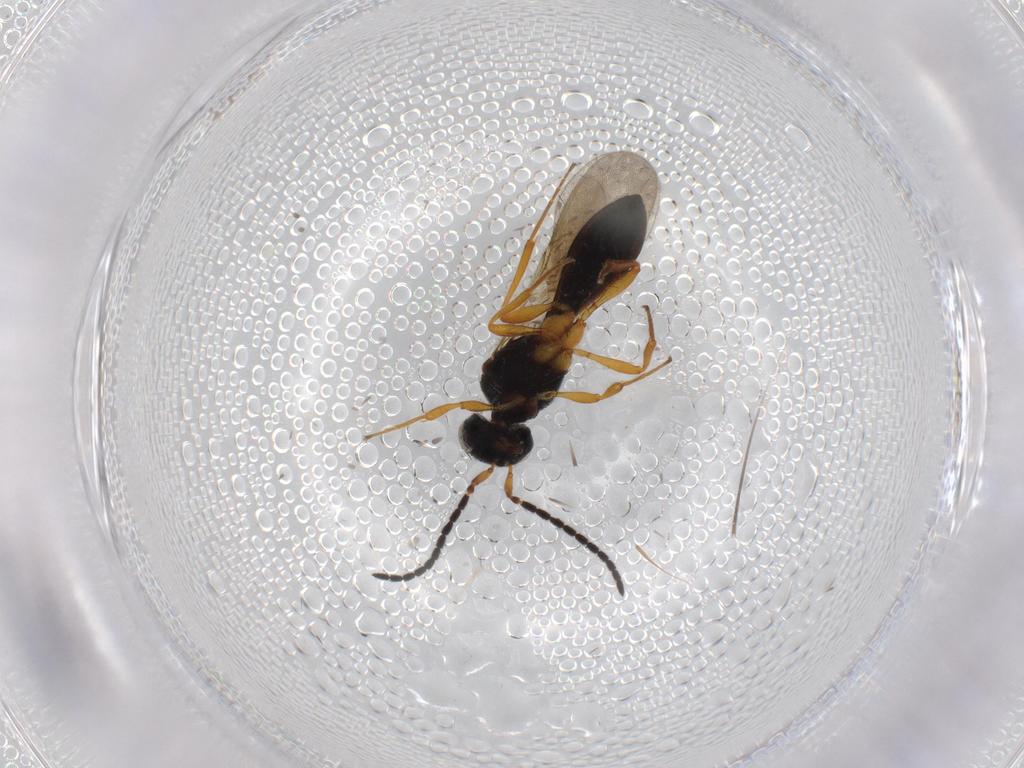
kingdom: Animalia
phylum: Arthropoda
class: Insecta
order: Hymenoptera
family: Scelionidae
